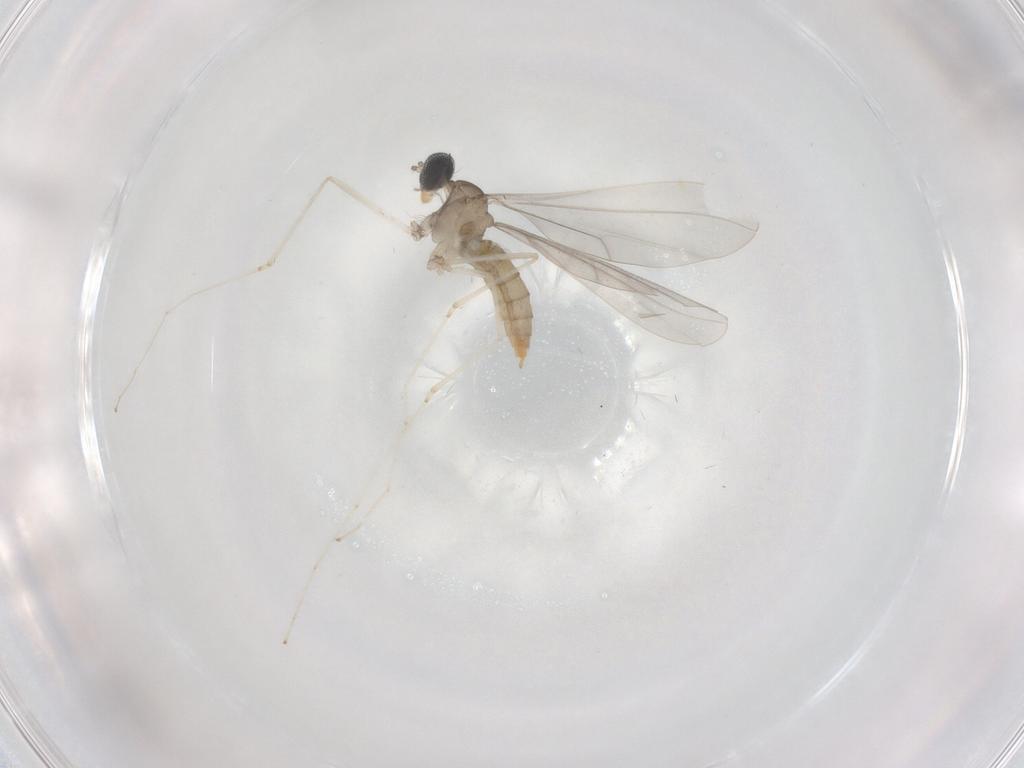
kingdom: Animalia
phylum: Arthropoda
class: Insecta
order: Diptera
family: Cecidomyiidae
